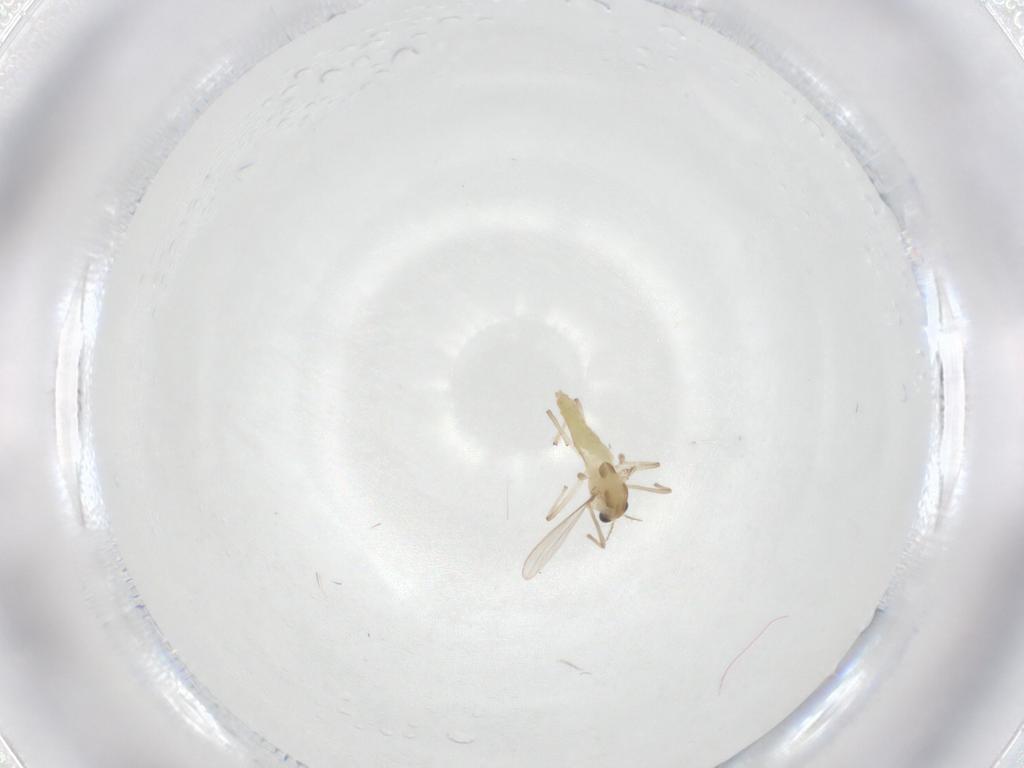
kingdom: Animalia
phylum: Arthropoda
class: Insecta
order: Diptera
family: Chironomidae
